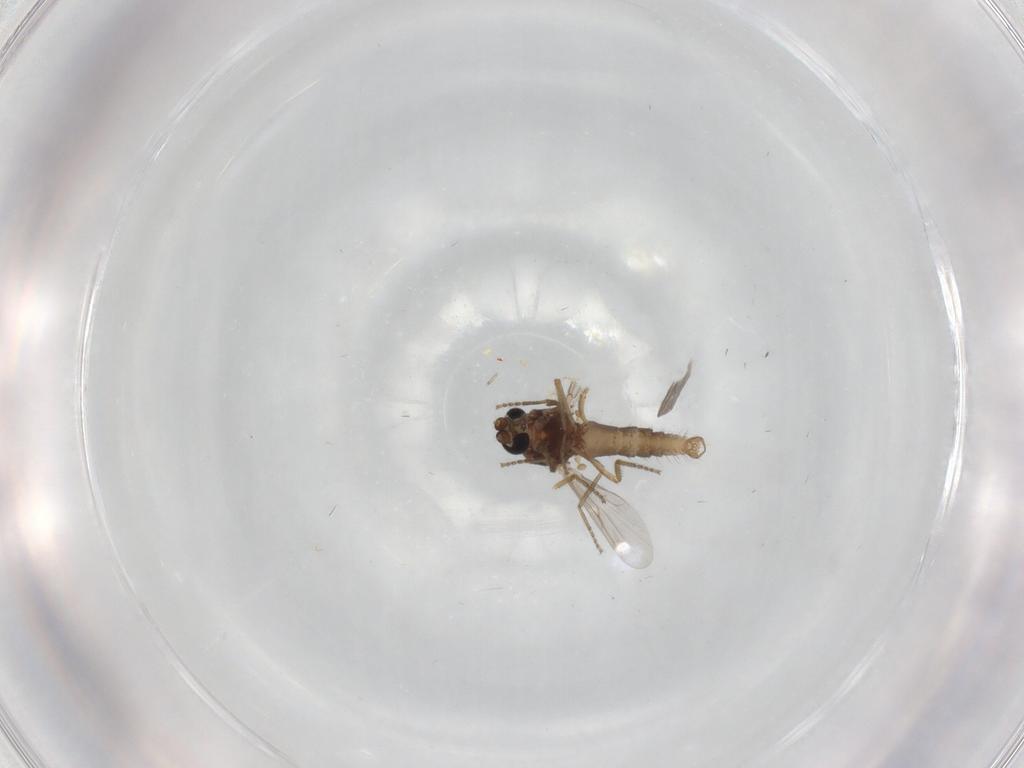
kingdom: Animalia
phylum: Arthropoda
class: Insecta
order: Diptera
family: Ceratopogonidae
